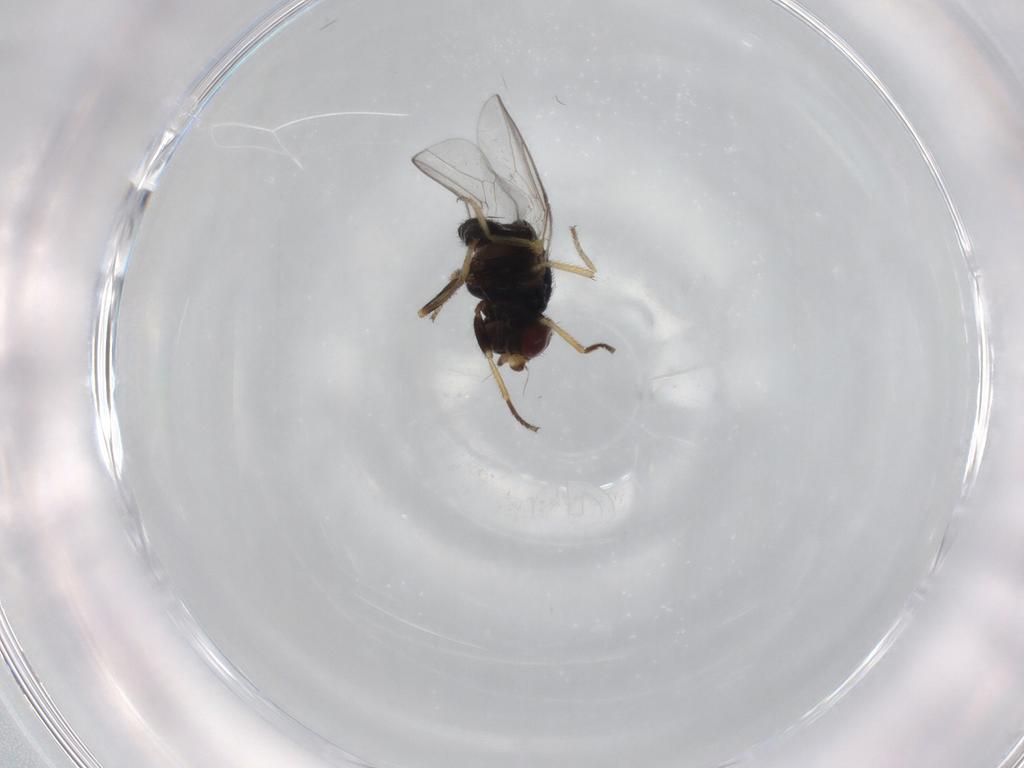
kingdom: Animalia
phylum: Arthropoda
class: Insecta
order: Diptera
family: Chloropidae
